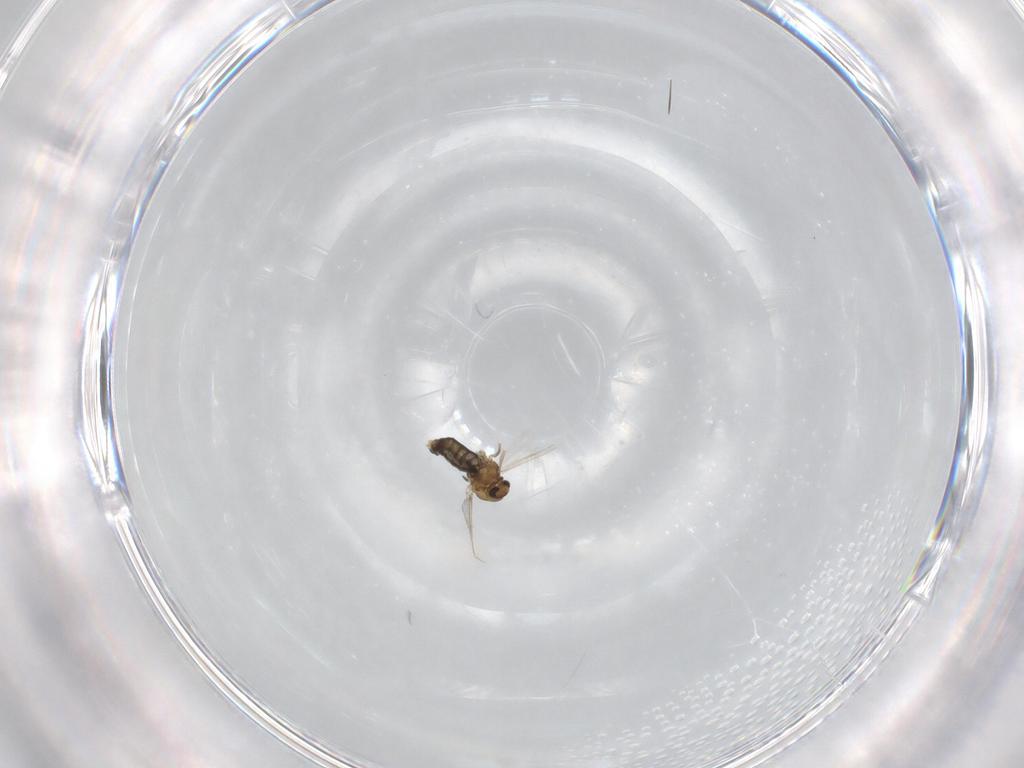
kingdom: Animalia
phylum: Arthropoda
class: Insecta
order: Diptera
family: Chironomidae
